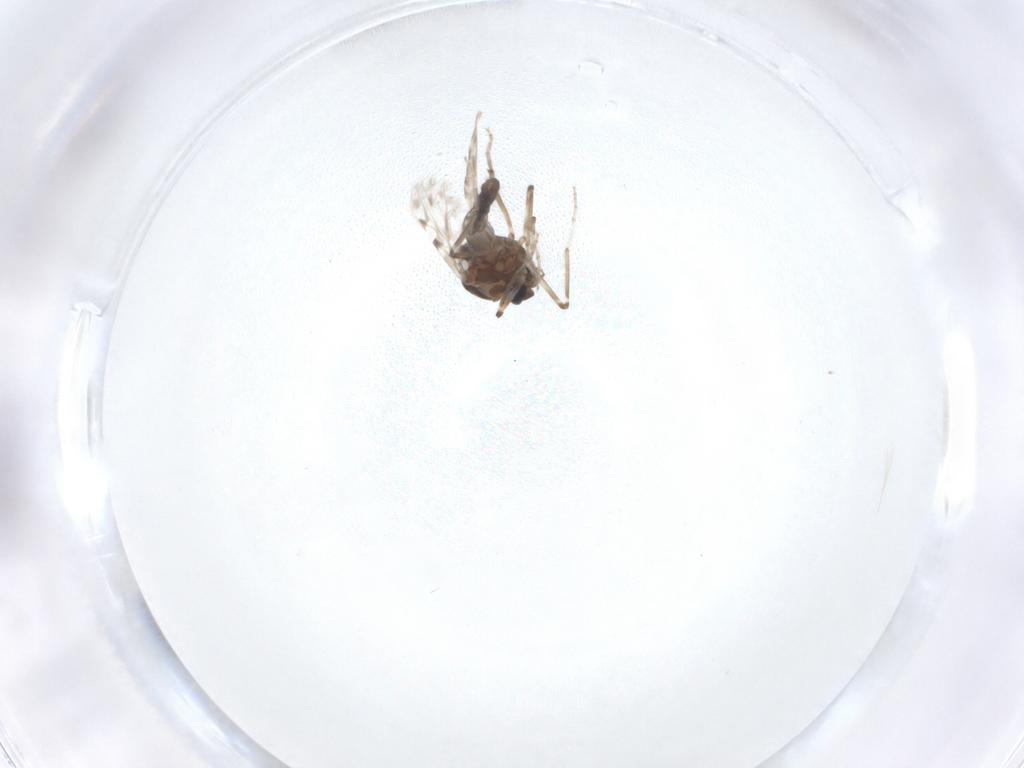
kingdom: Animalia
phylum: Arthropoda
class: Insecta
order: Diptera
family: Ceratopogonidae
